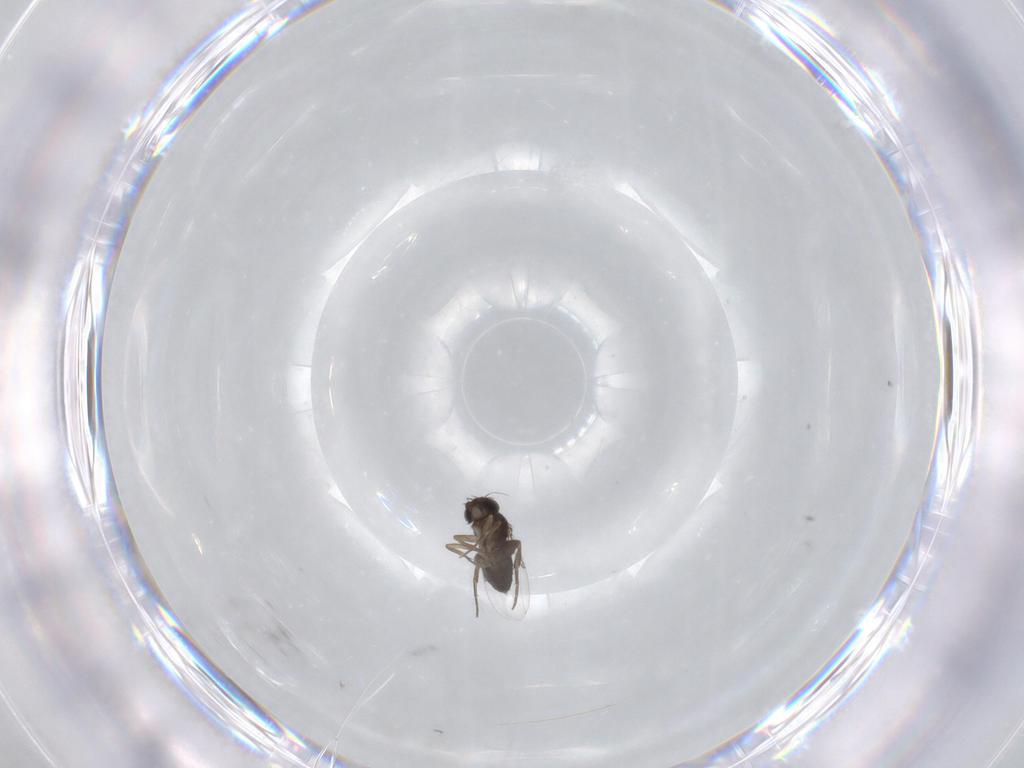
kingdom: Animalia
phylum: Arthropoda
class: Insecta
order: Diptera
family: Phoridae
